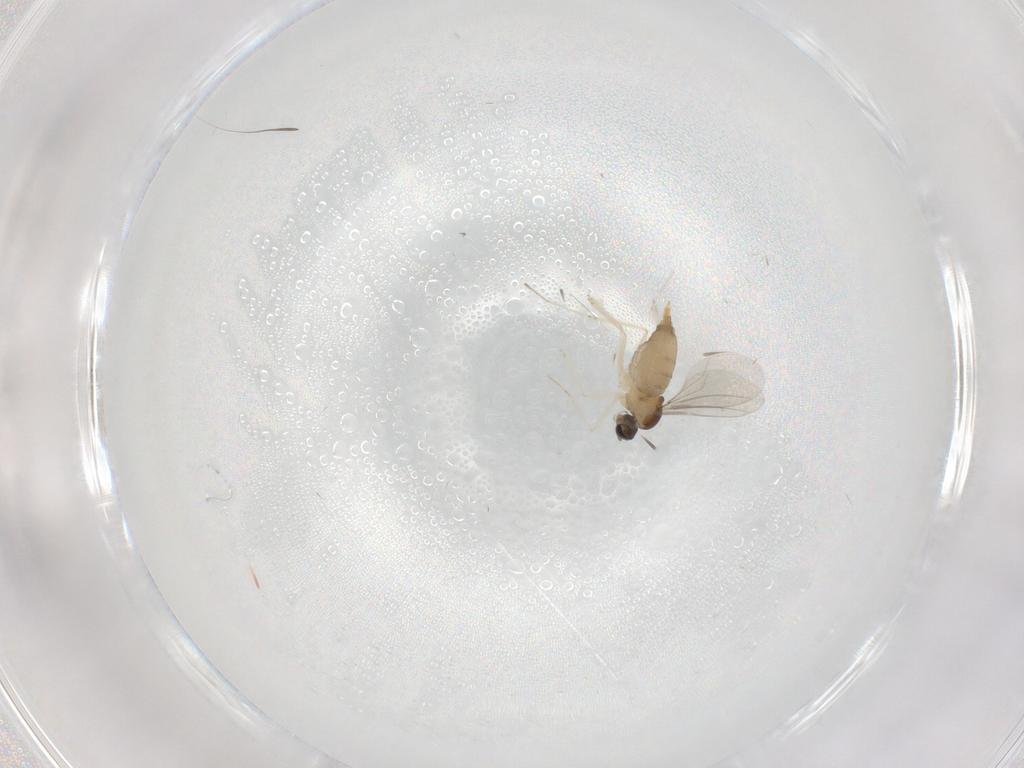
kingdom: Animalia
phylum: Arthropoda
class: Insecta
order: Diptera
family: Cecidomyiidae
